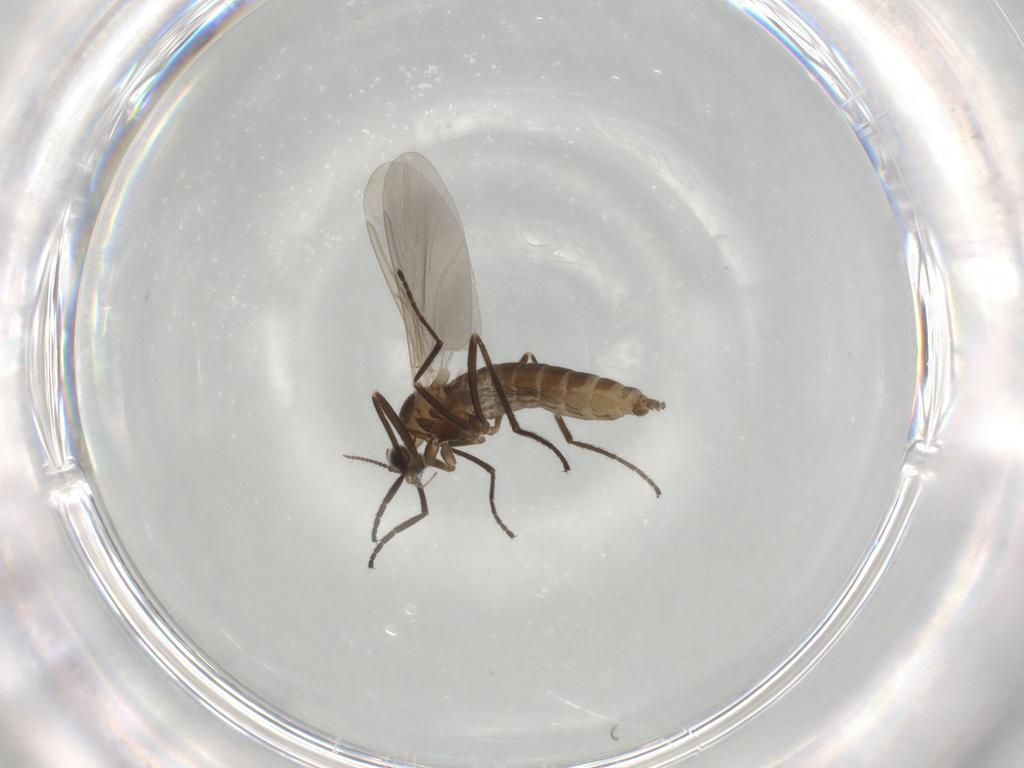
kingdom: Animalia
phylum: Arthropoda
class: Insecta
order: Diptera
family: Cecidomyiidae
